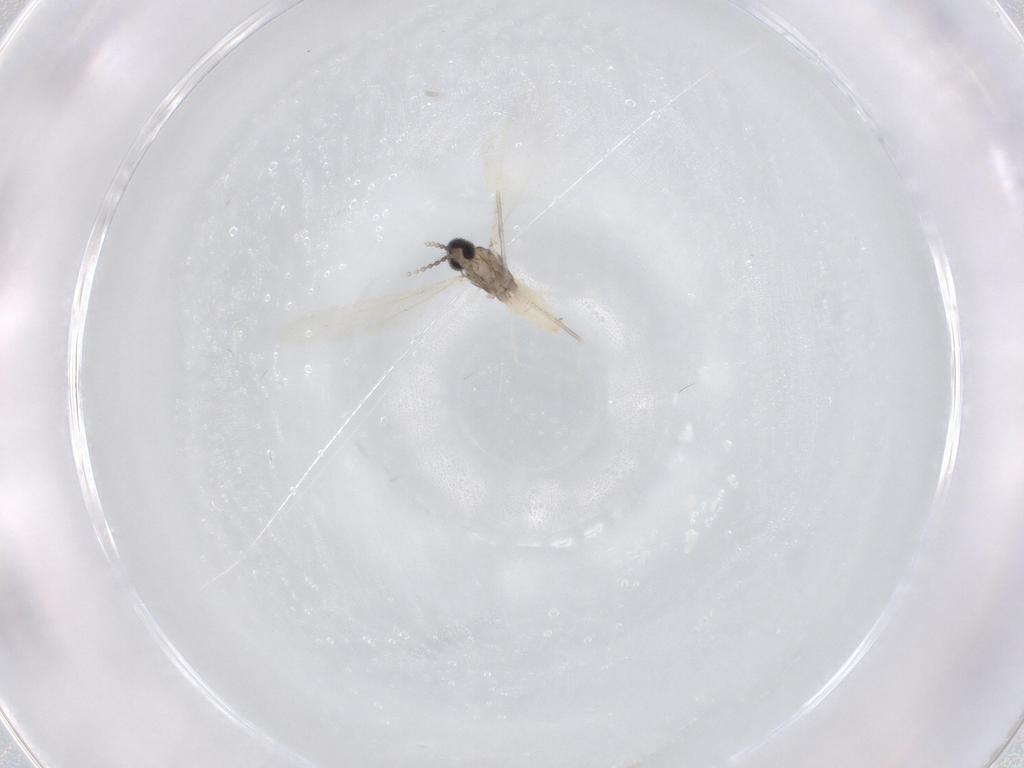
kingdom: Animalia
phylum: Arthropoda
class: Insecta
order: Diptera
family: Cecidomyiidae
